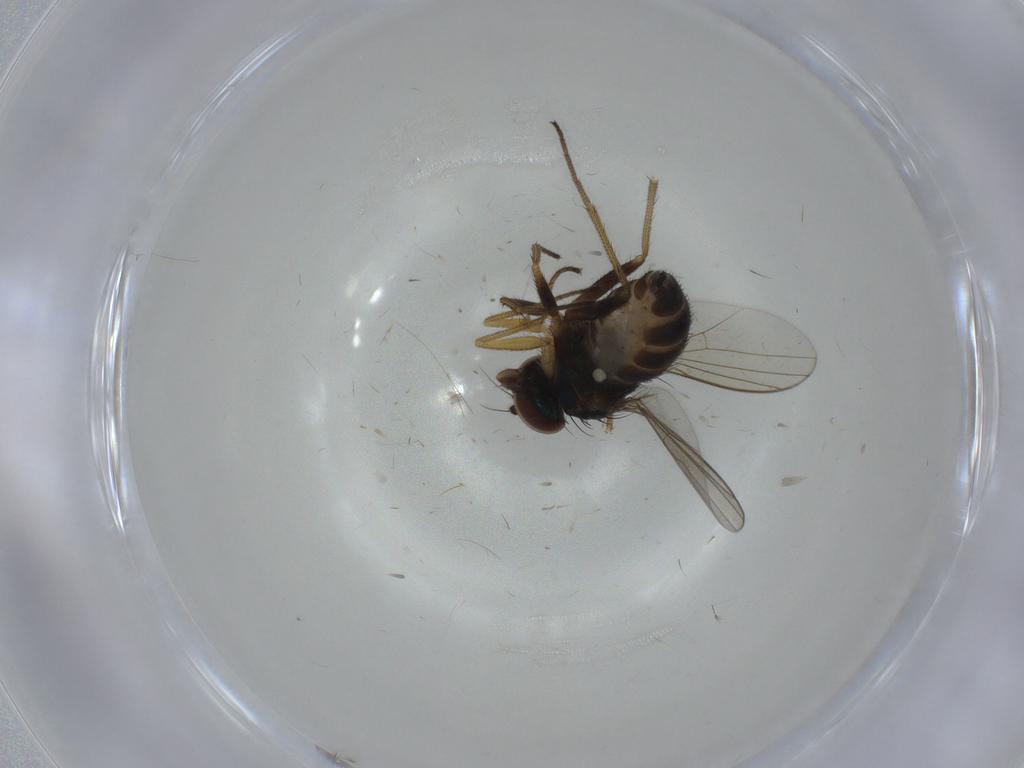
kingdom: Animalia
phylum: Arthropoda
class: Insecta
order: Diptera
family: Dolichopodidae
